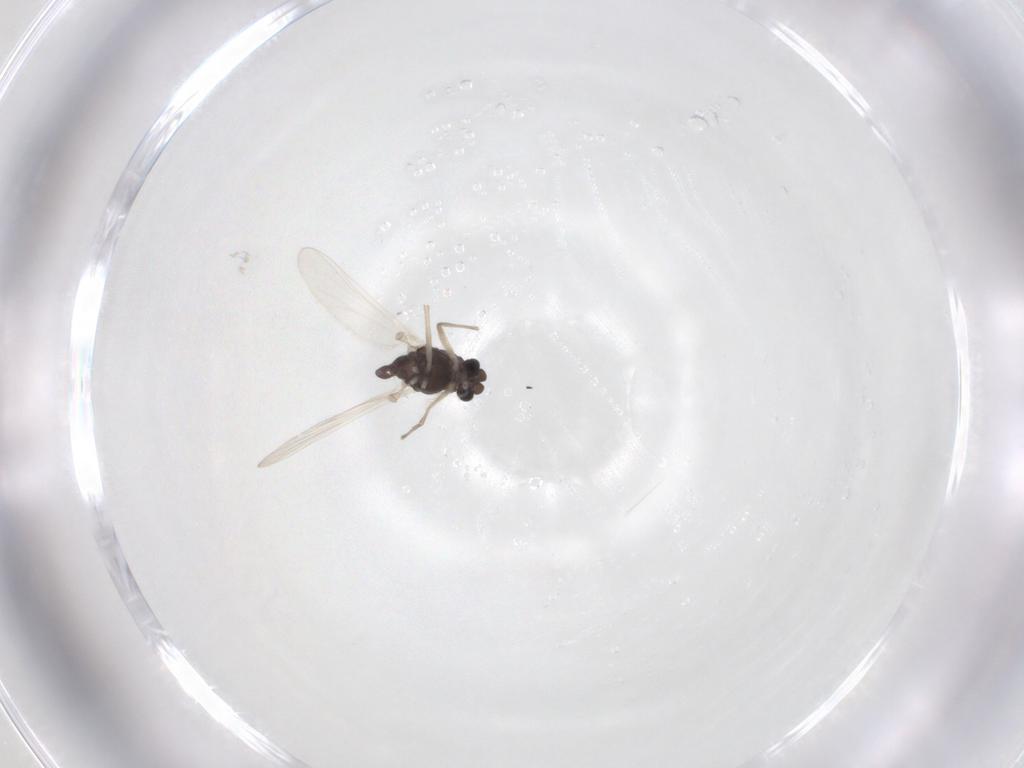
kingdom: Animalia
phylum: Arthropoda
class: Insecta
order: Diptera
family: Chironomidae
